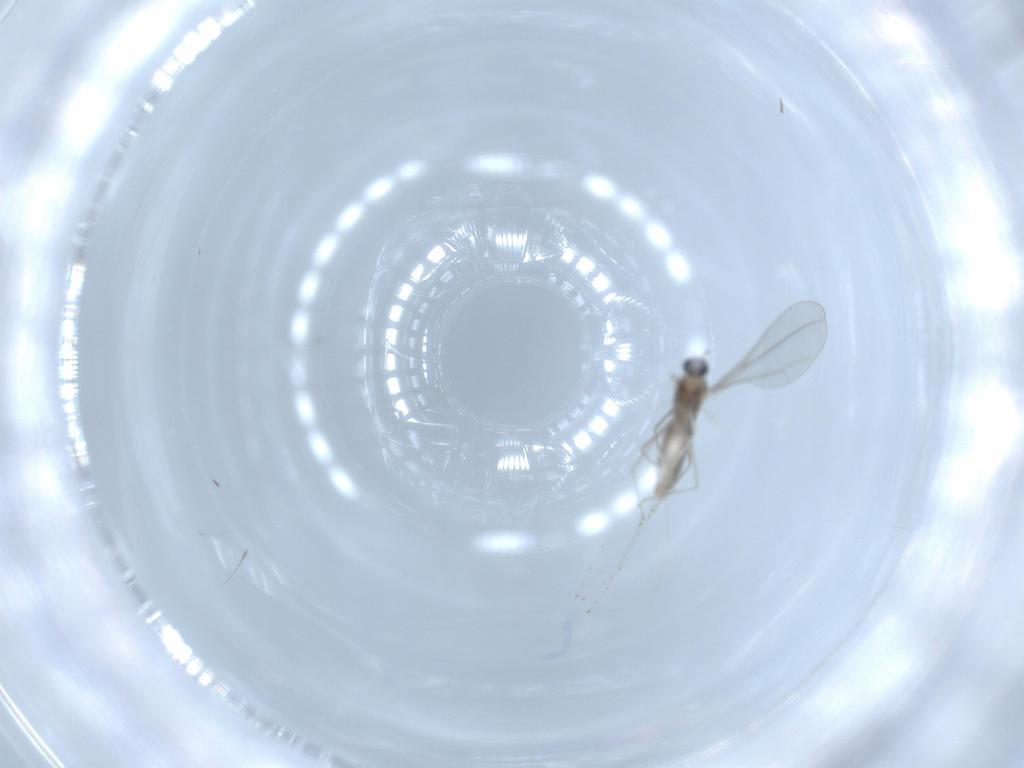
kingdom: Animalia
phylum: Arthropoda
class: Insecta
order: Diptera
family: Cecidomyiidae
